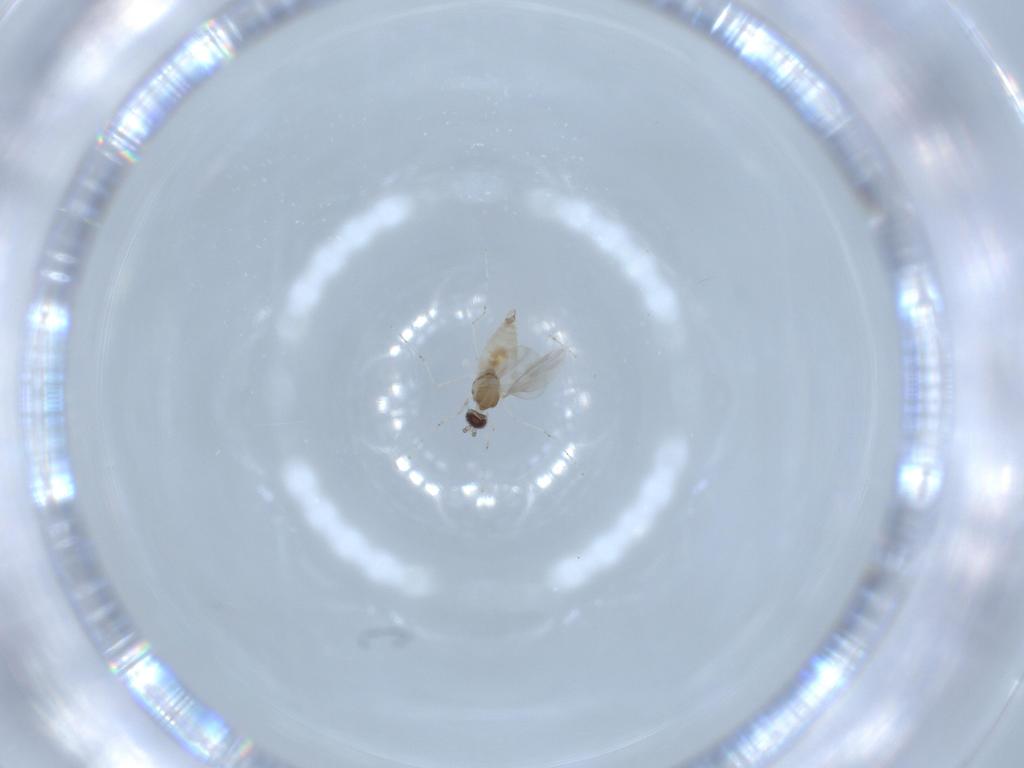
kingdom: Animalia
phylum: Arthropoda
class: Insecta
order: Diptera
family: Cecidomyiidae
